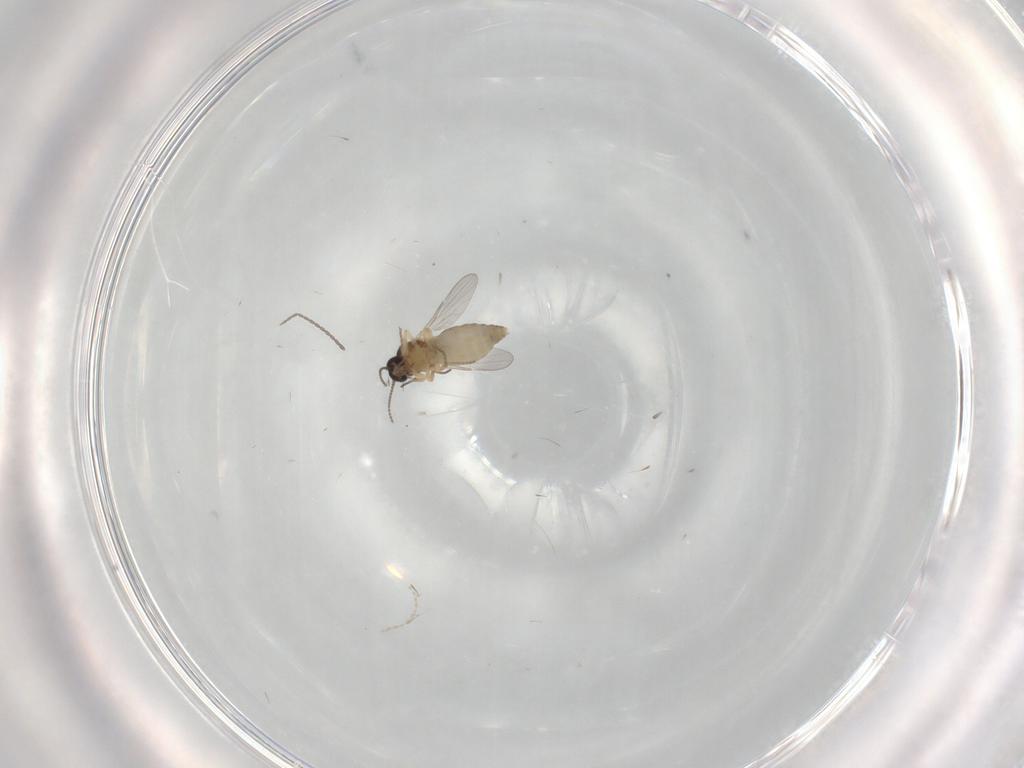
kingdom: Animalia
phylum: Arthropoda
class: Insecta
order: Diptera
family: Ceratopogonidae
